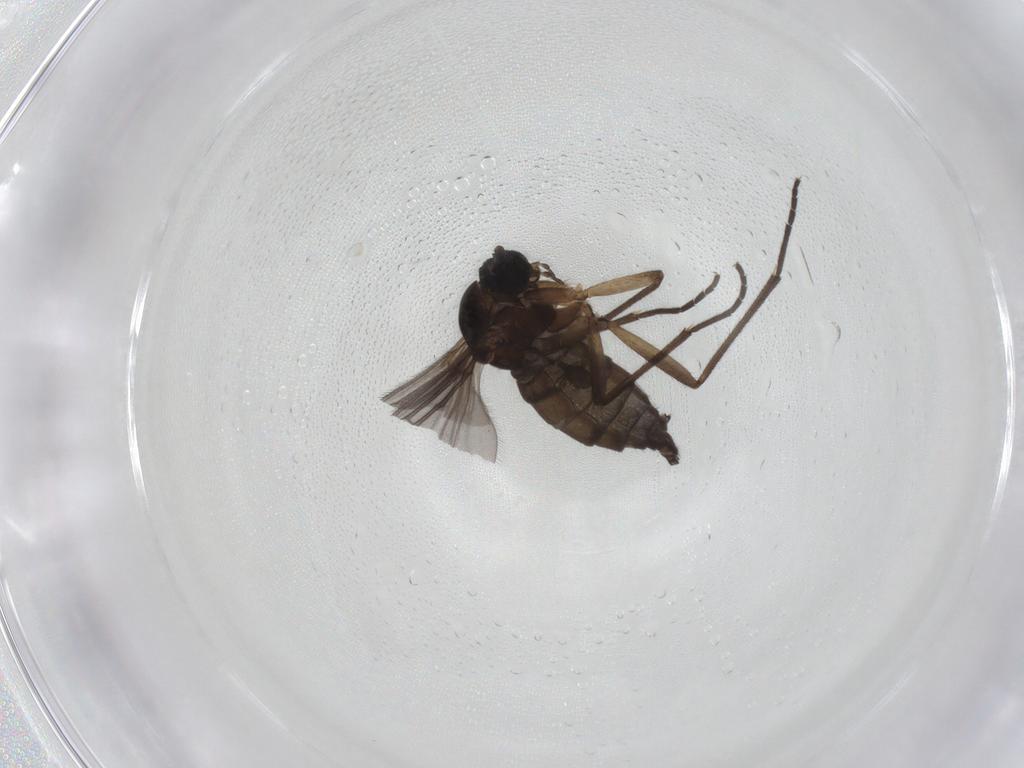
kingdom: Animalia
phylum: Arthropoda
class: Insecta
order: Diptera
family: Sciaridae
